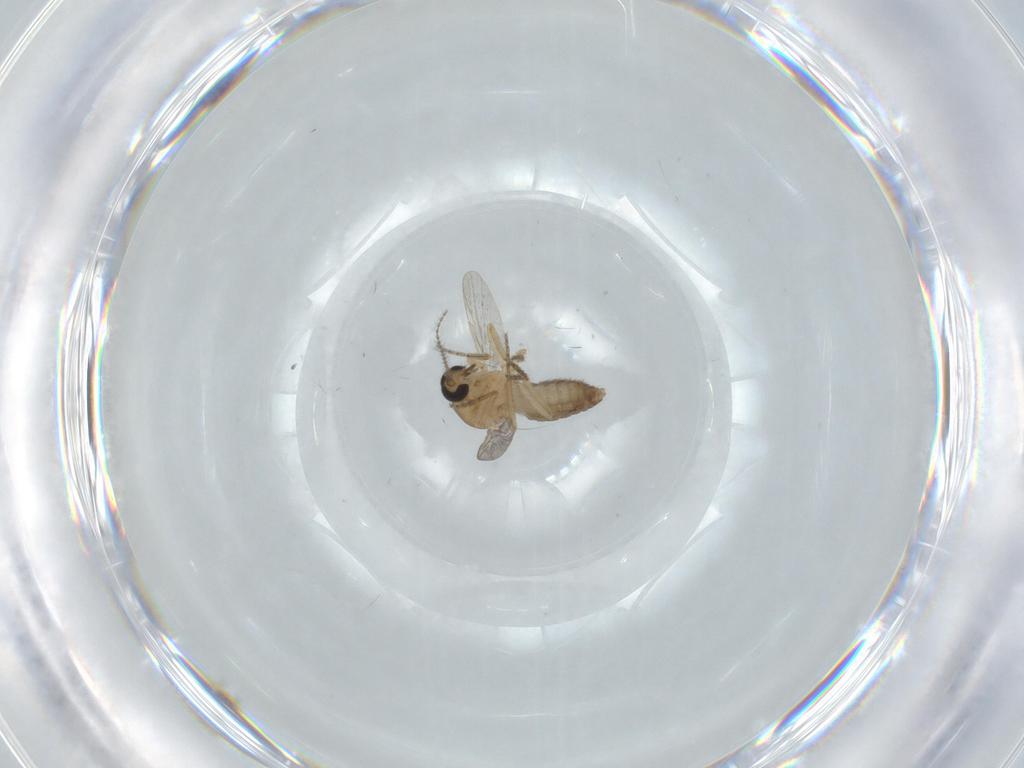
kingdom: Animalia
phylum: Arthropoda
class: Insecta
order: Diptera
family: Ceratopogonidae
